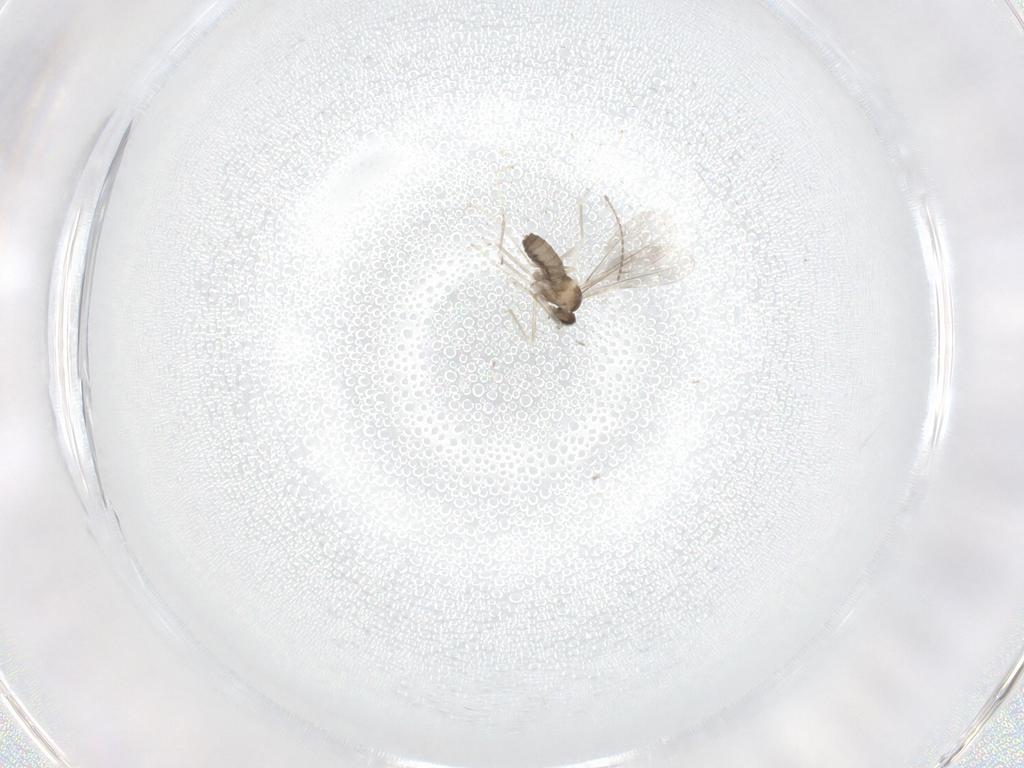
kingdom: Animalia
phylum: Arthropoda
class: Insecta
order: Diptera
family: Cecidomyiidae
